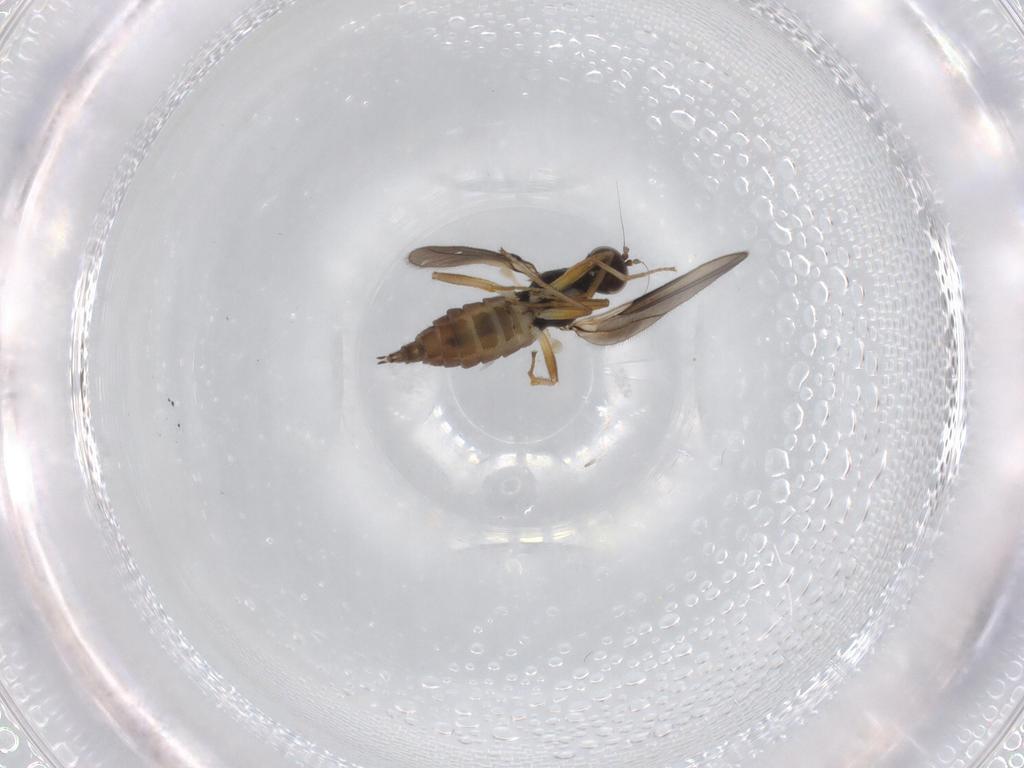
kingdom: Animalia
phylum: Arthropoda
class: Insecta
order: Diptera
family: Hybotidae
